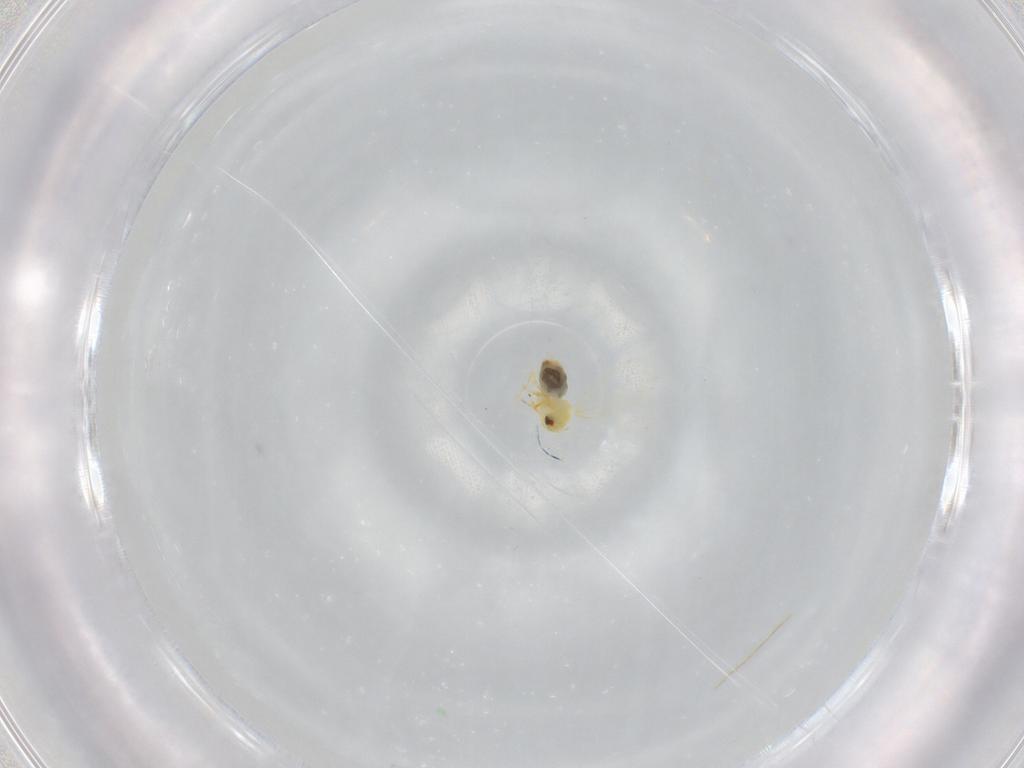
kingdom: Animalia
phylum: Arthropoda
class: Insecta
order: Hemiptera
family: Aleyrodidae
